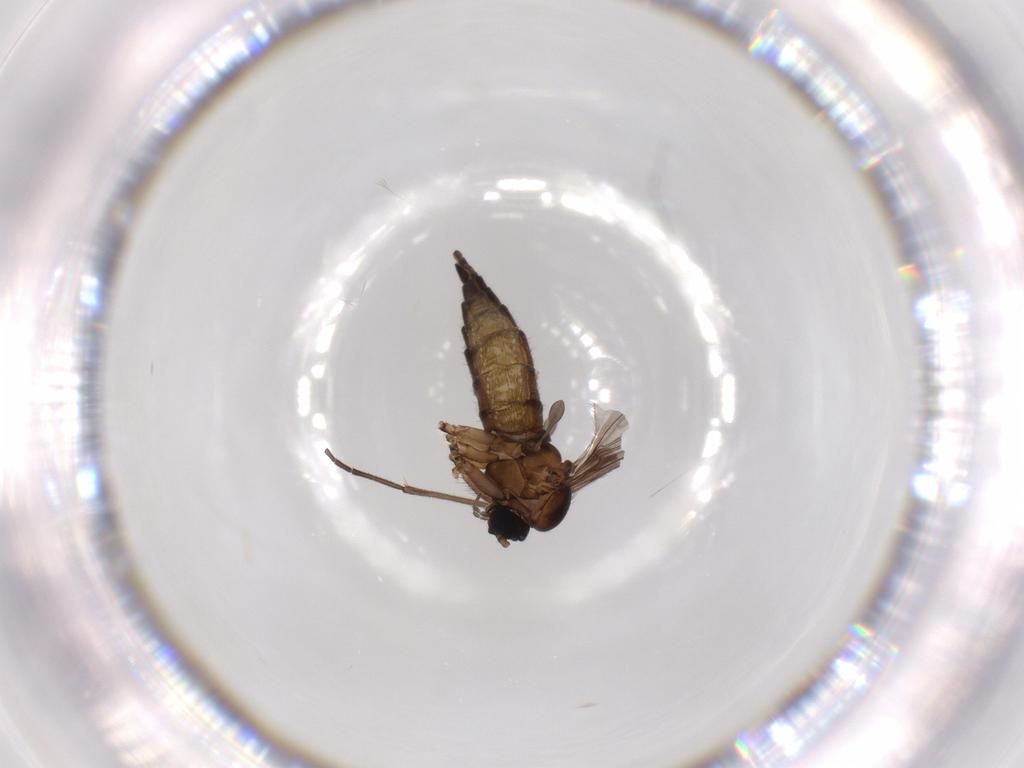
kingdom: Animalia
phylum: Arthropoda
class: Insecta
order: Diptera
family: Sciaridae
